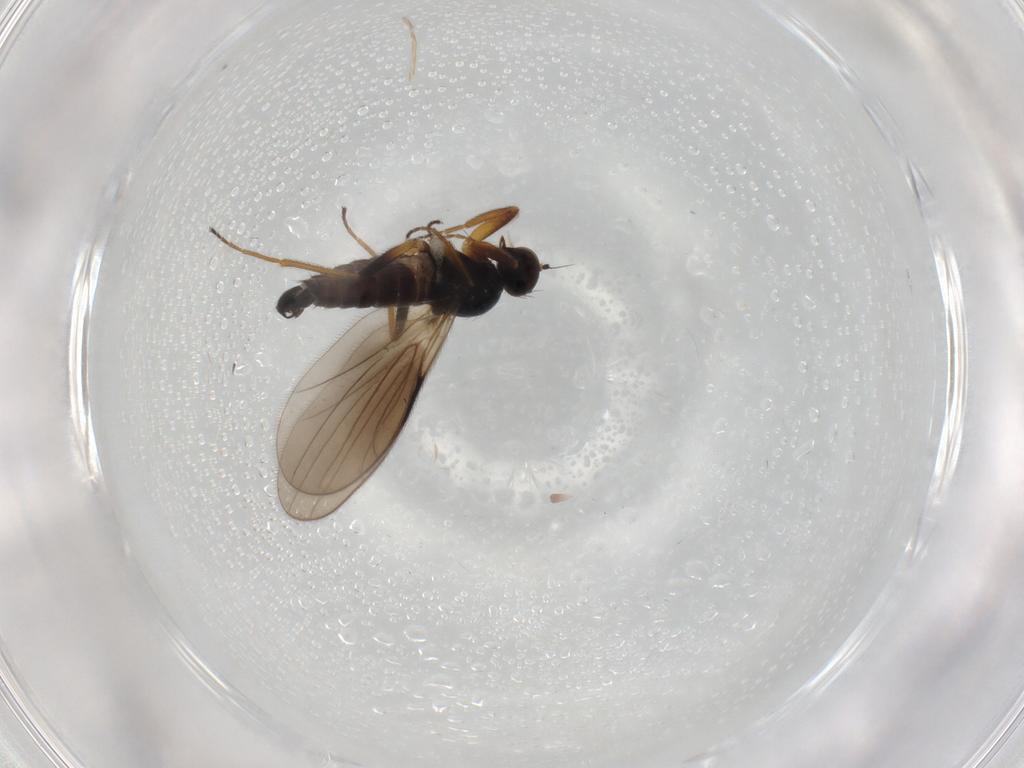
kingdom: Animalia
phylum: Arthropoda
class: Insecta
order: Diptera
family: Hybotidae
